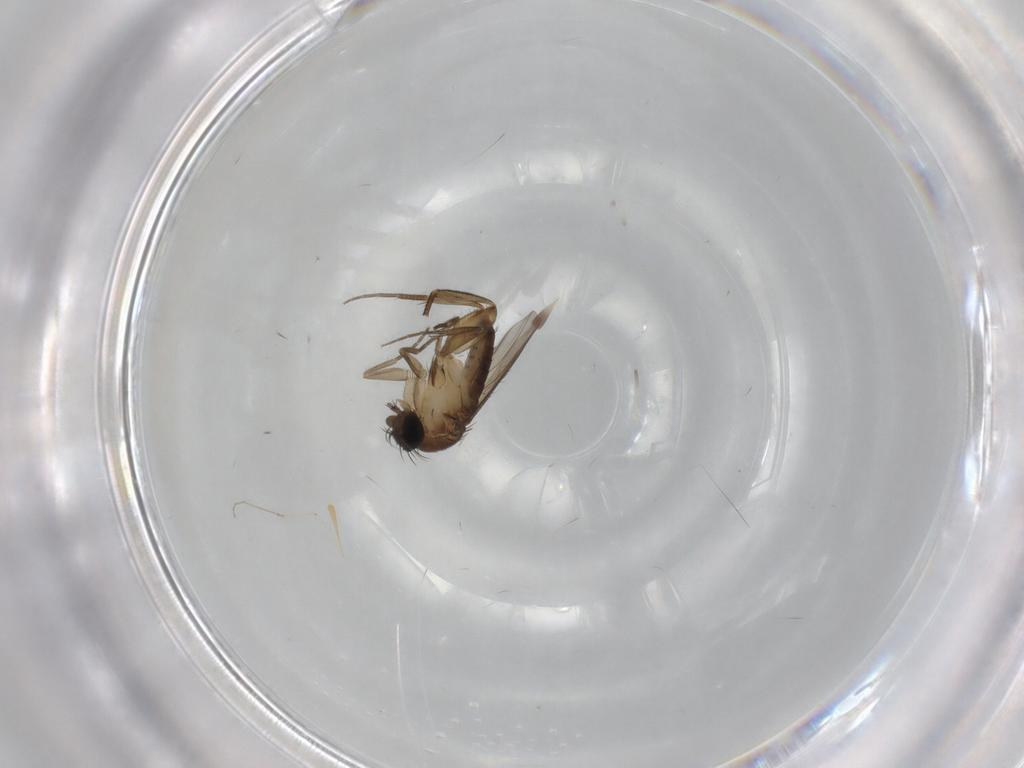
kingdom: Animalia
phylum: Arthropoda
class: Insecta
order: Diptera
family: Phoridae
